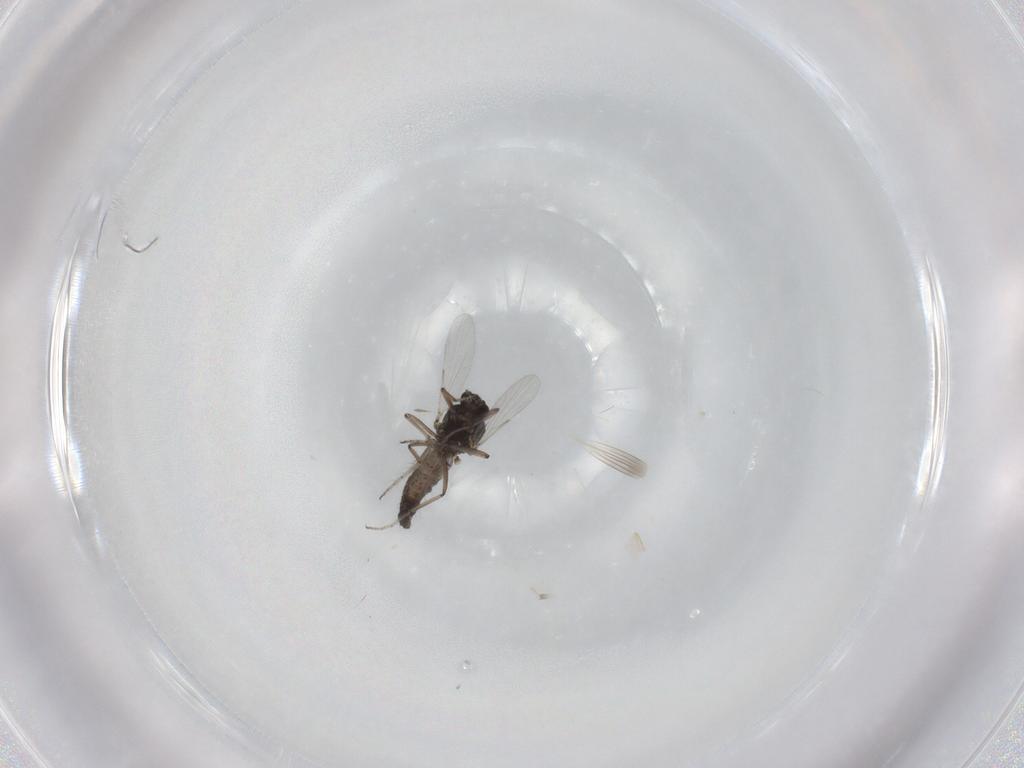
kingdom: Animalia
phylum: Arthropoda
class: Insecta
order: Diptera
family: Ceratopogonidae
